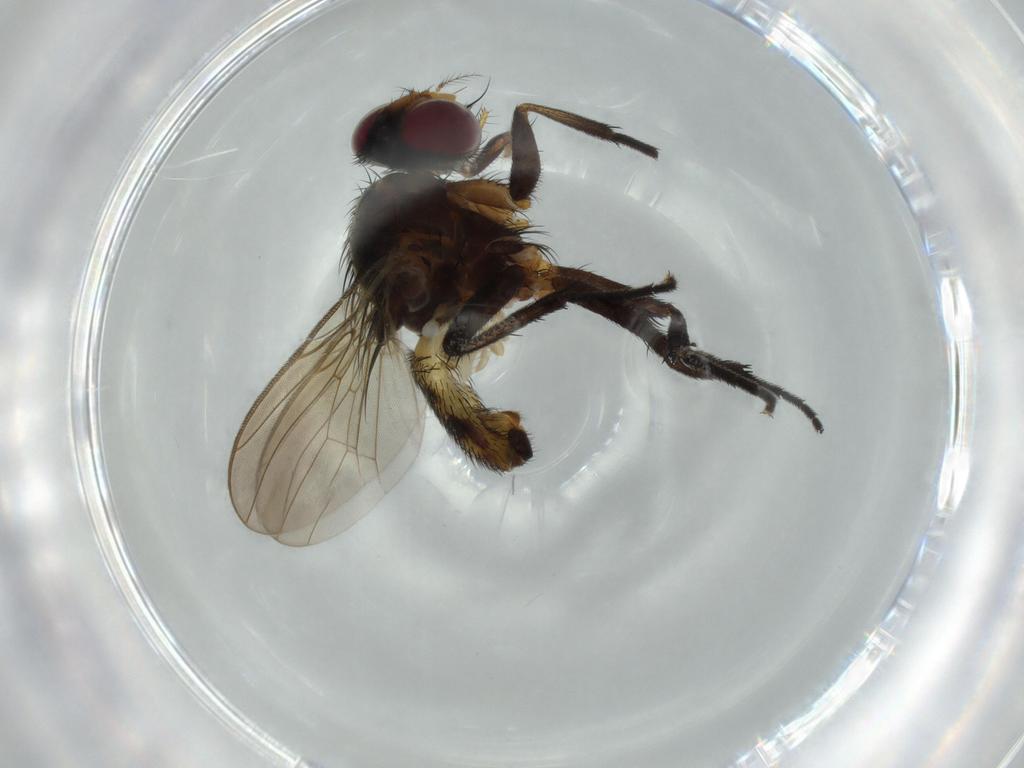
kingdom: Animalia
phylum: Arthropoda
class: Insecta
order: Diptera
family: Anthomyiidae
